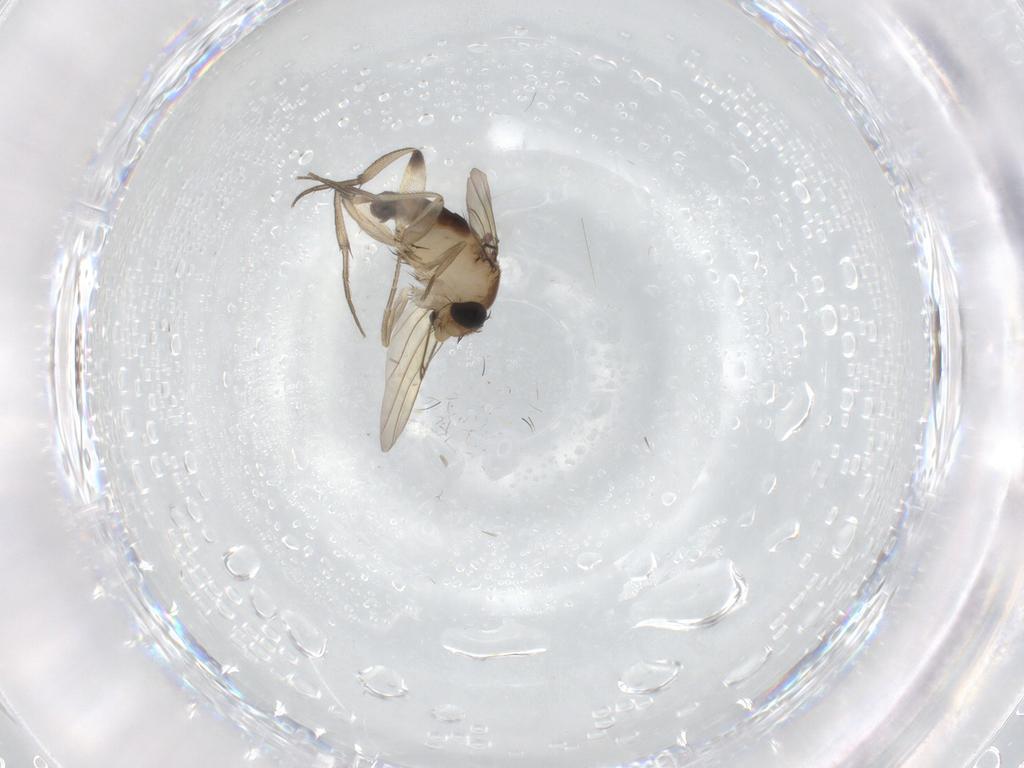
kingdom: Animalia
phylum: Arthropoda
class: Insecta
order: Diptera
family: Phoridae
